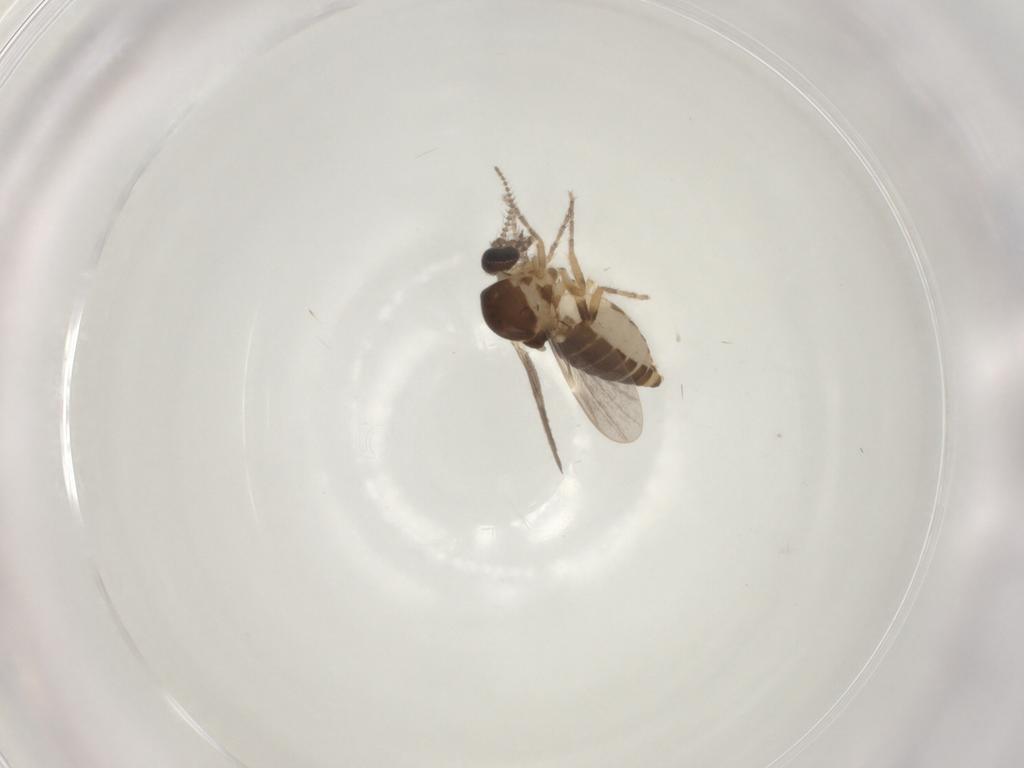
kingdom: Animalia
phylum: Arthropoda
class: Insecta
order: Diptera
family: Ceratopogonidae
